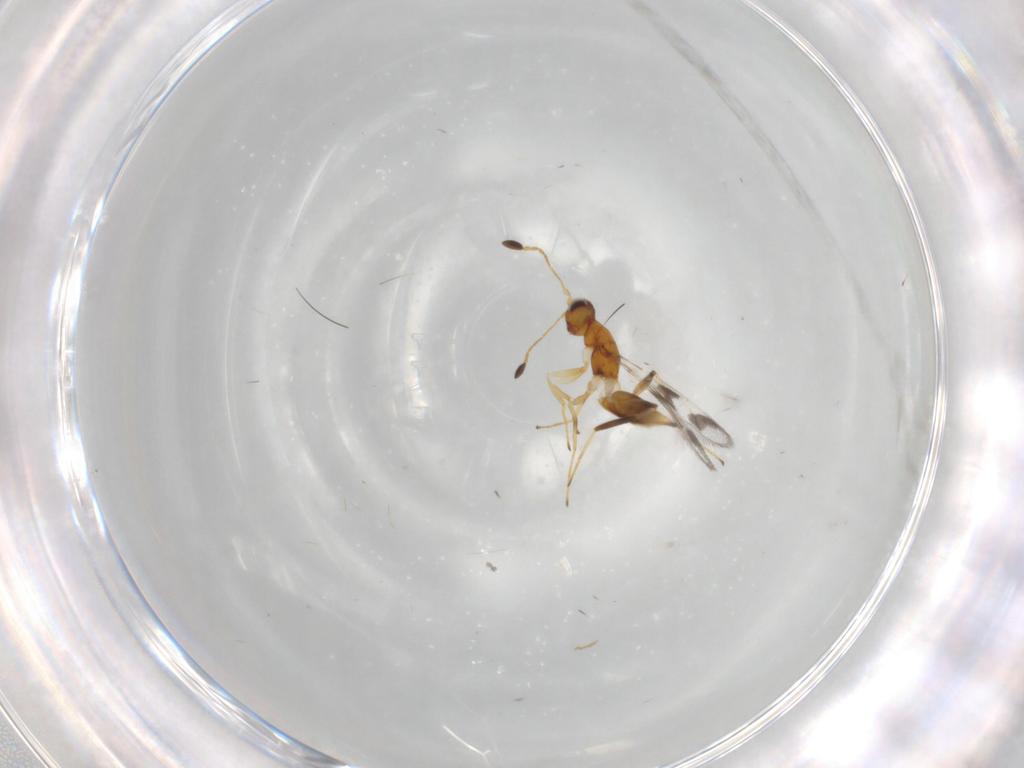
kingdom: Animalia
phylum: Arthropoda
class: Insecta
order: Hymenoptera
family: Mymaridae
